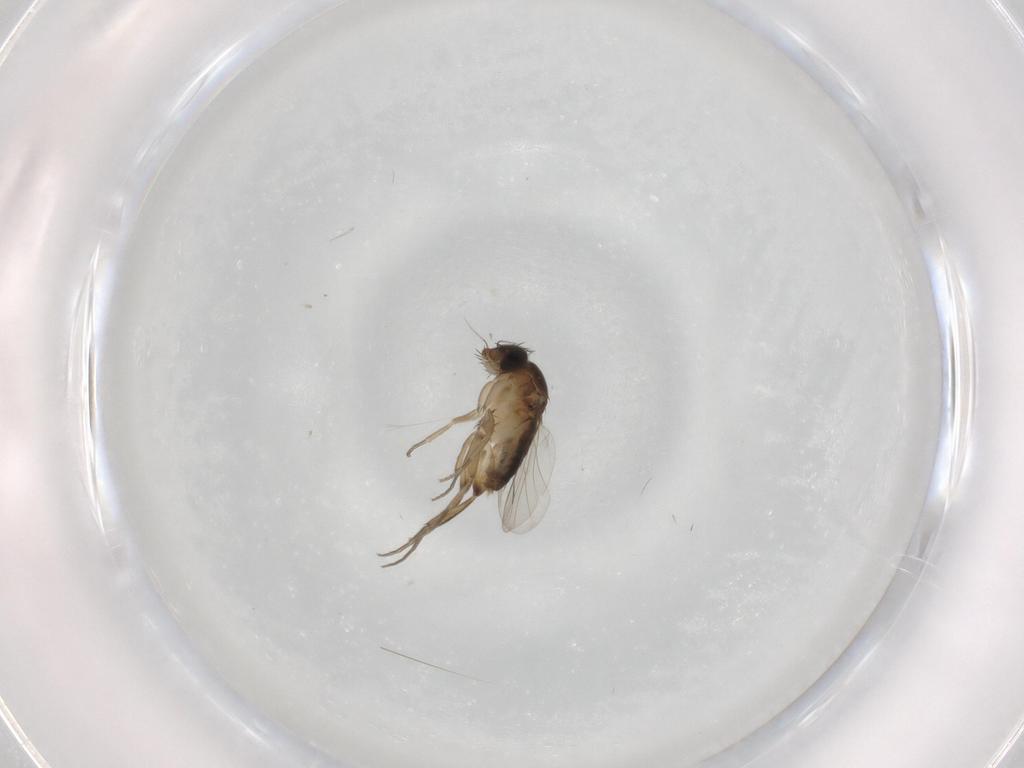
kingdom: Animalia
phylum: Arthropoda
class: Insecta
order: Diptera
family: Phoridae
